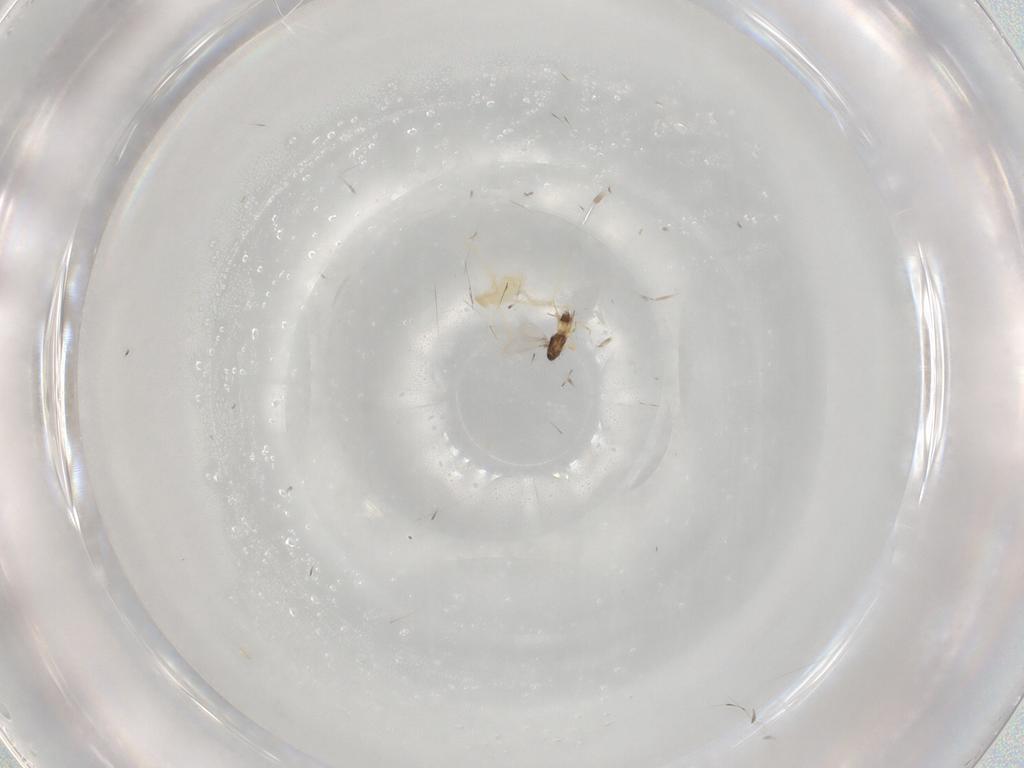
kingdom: Animalia
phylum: Arthropoda
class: Arachnida
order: Trombidiformes
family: Erythraeidae
